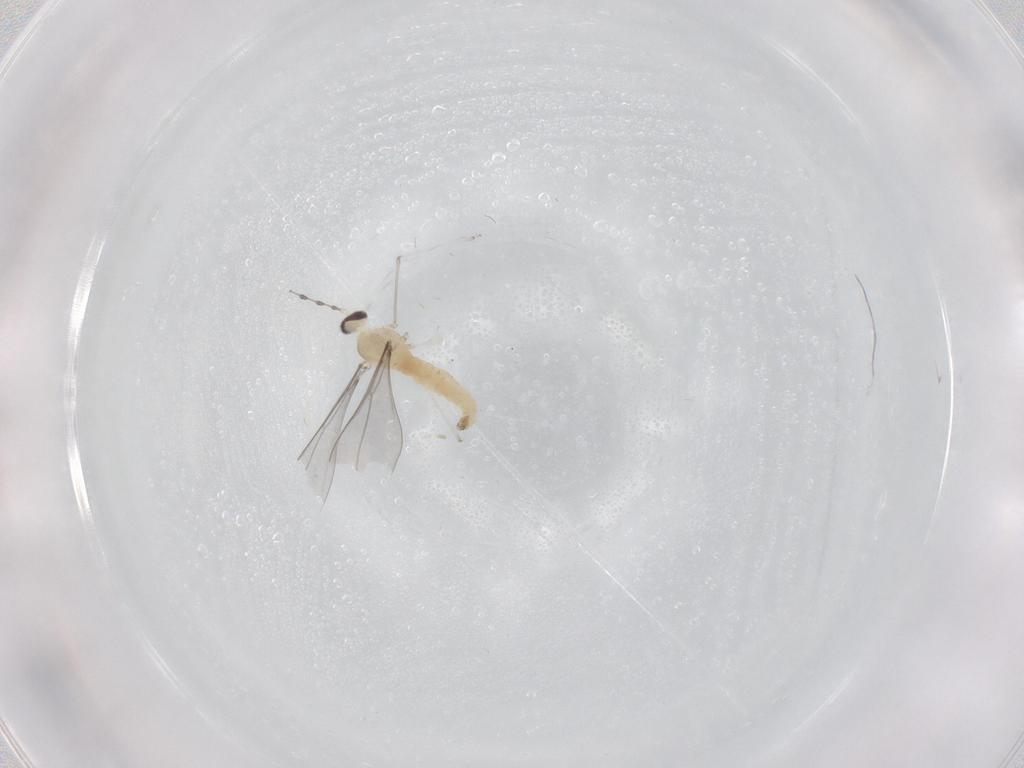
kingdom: Animalia
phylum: Arthropoda
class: Insecta
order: Diptera
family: Cecidomyiidae
